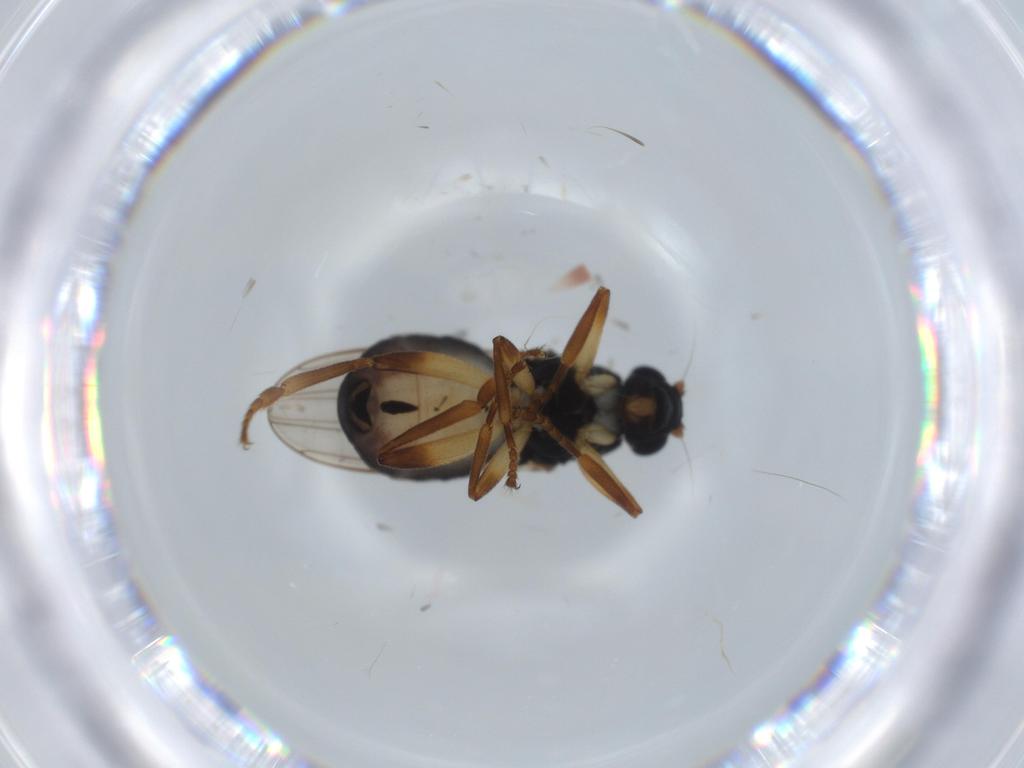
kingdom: Animalia
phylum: Arthropoda
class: Insecta
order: Diptera
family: Sphaeroceridae
